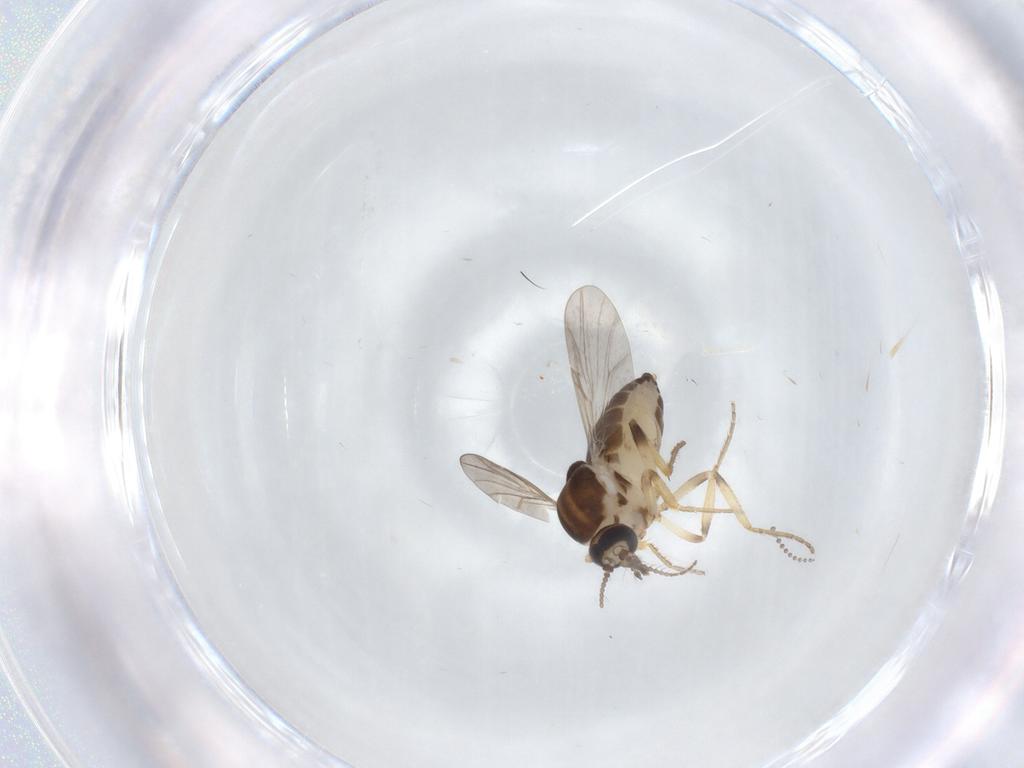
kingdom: Animalia
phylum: Arthropoda
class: Insecta
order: Diptera
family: Ceratopogonidae
